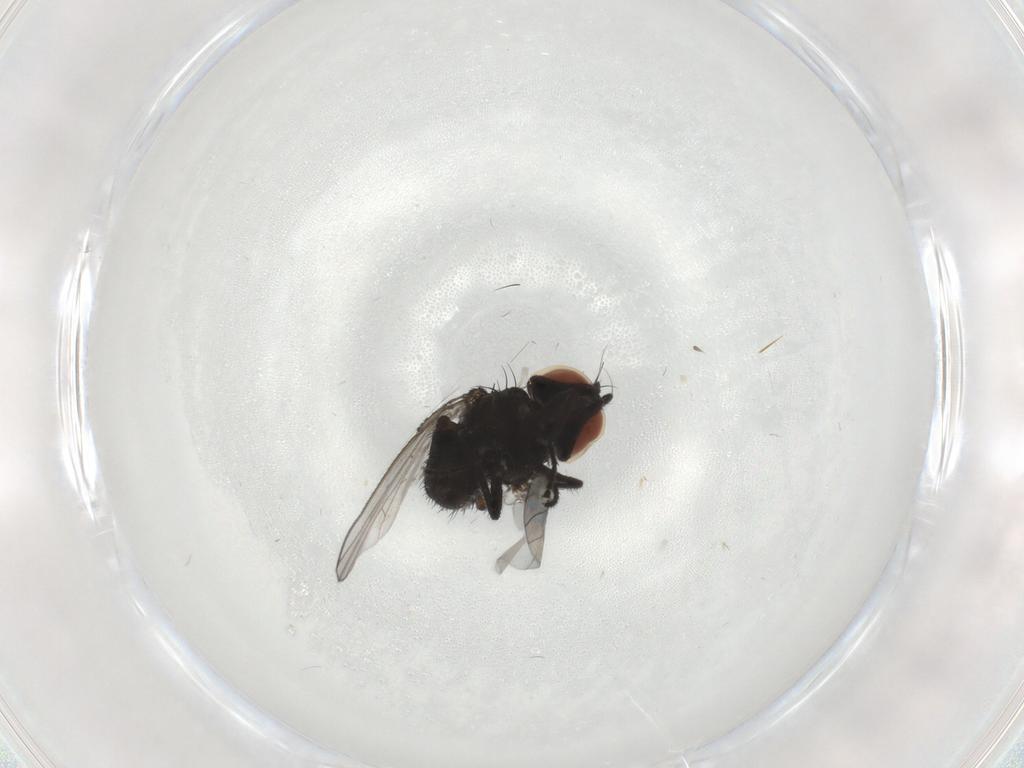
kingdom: Animalia
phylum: Arthropoda
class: Insecta
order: Diptera
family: Milichiidae
